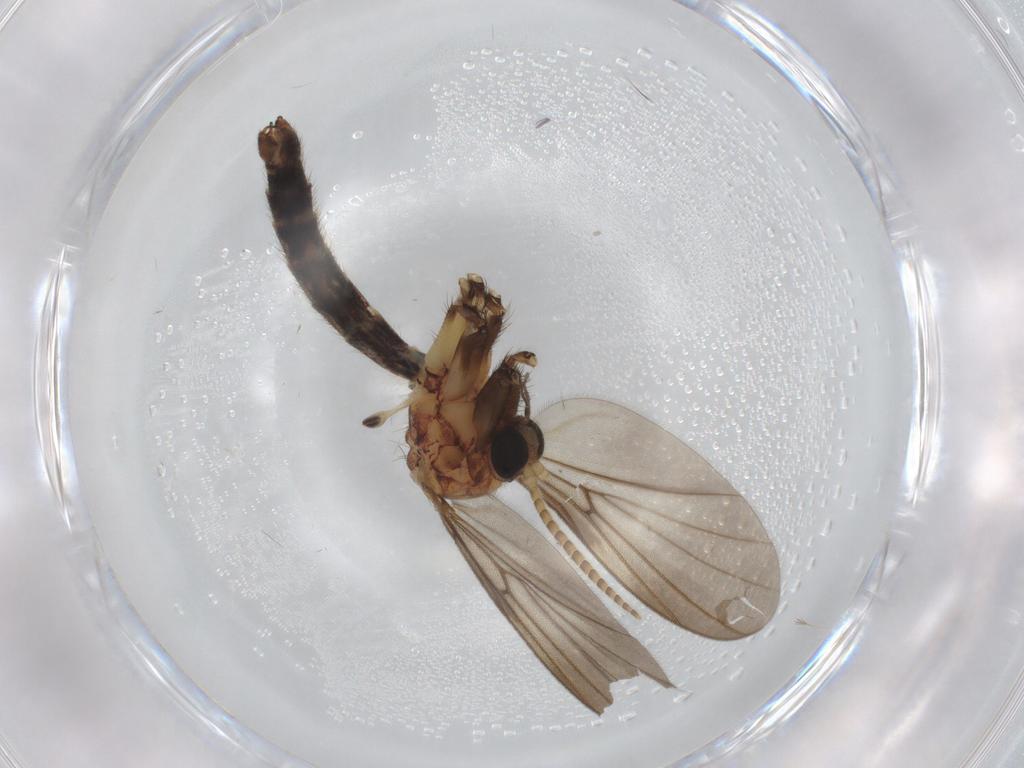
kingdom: Animalia
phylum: Arthropoda
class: Insecta
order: Diptera
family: Mycetophilidae
